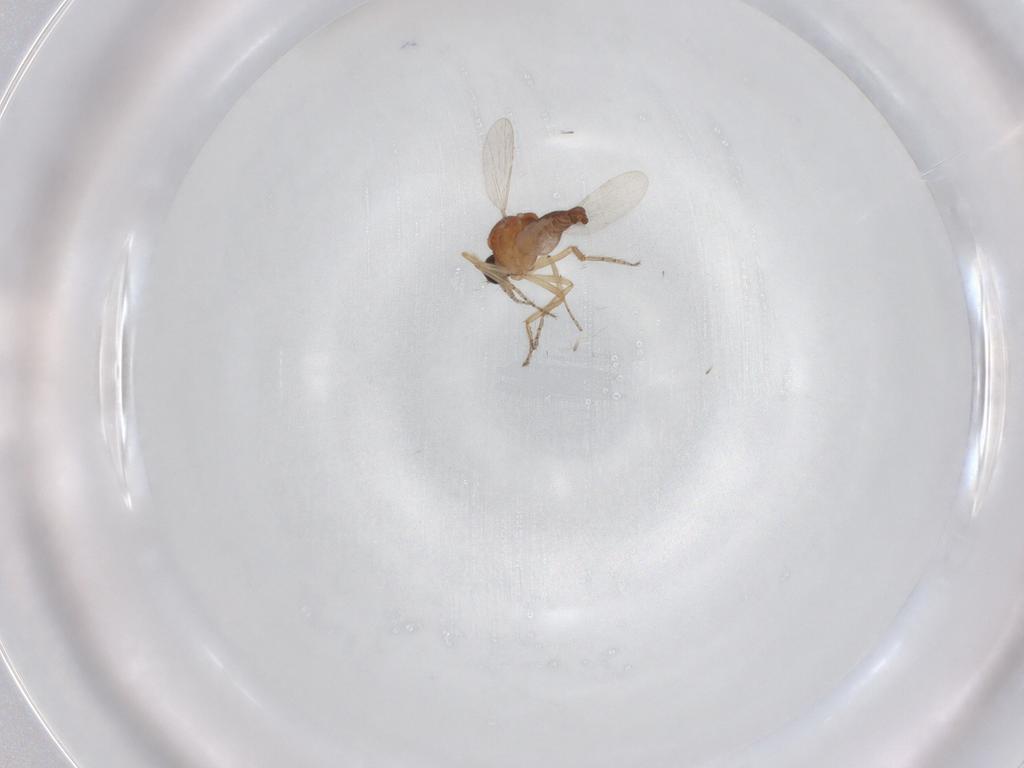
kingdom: Animalia
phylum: Arthropoda
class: Insecta
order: Diptera
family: Ceratopogonidae
